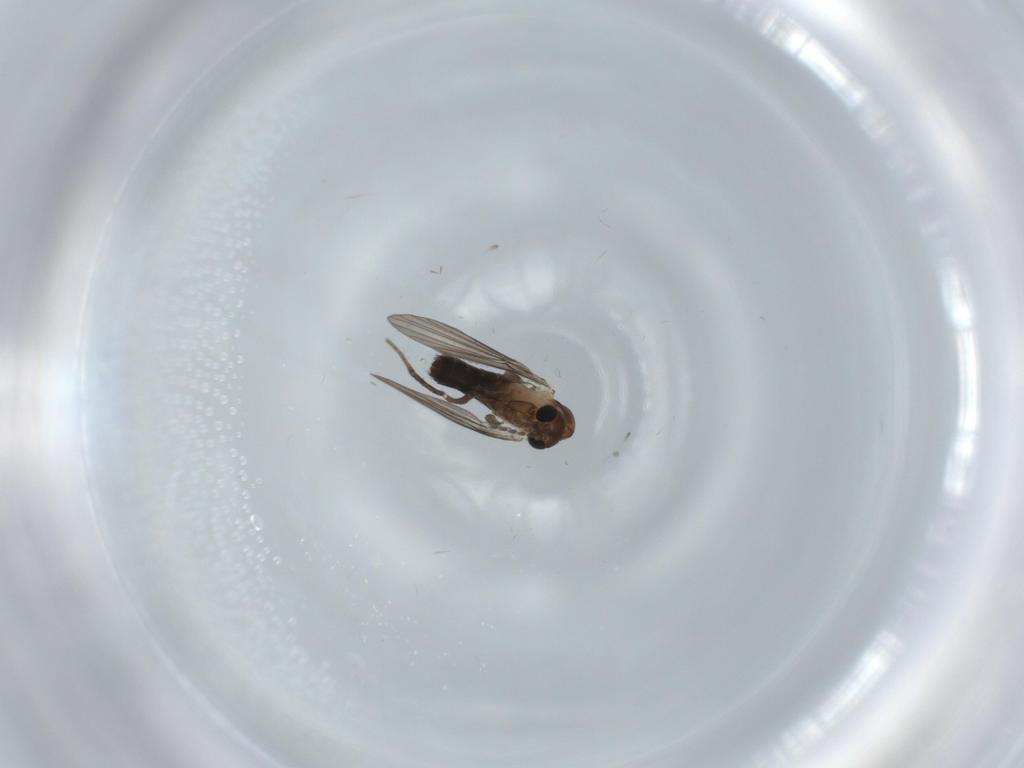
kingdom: Animalia
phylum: Arthropoda
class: Insecta
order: Diptera
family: Psychodidae
